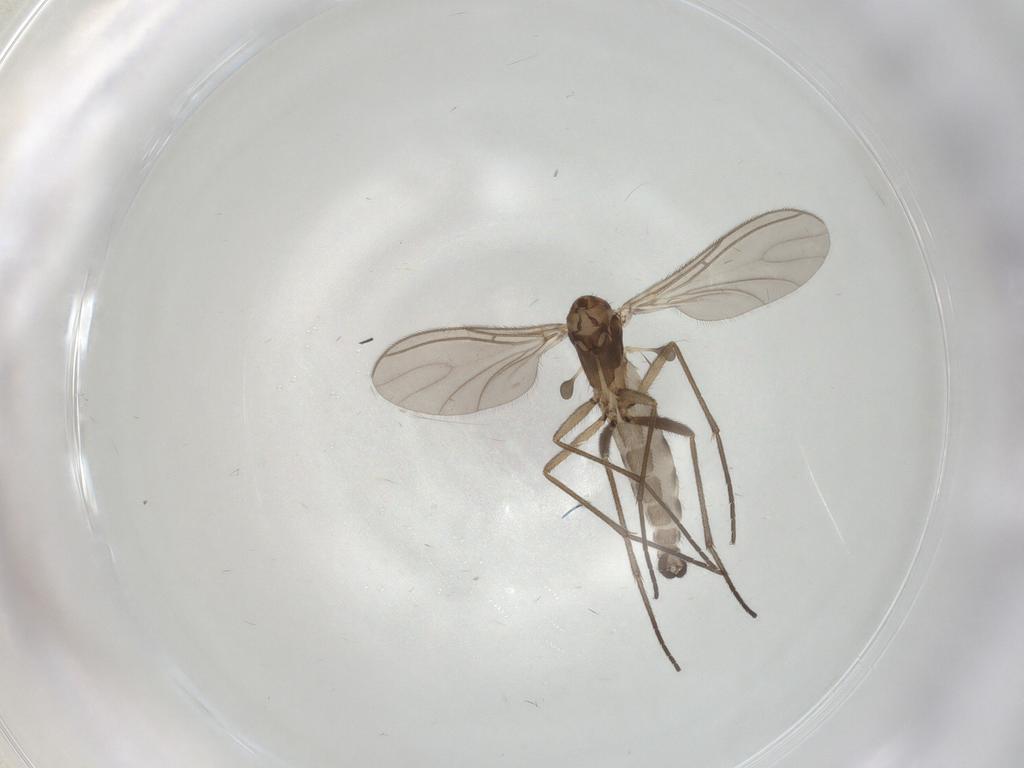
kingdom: Animalia
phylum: Arthropoda
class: Insecta
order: Diptera
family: Sciaridae
